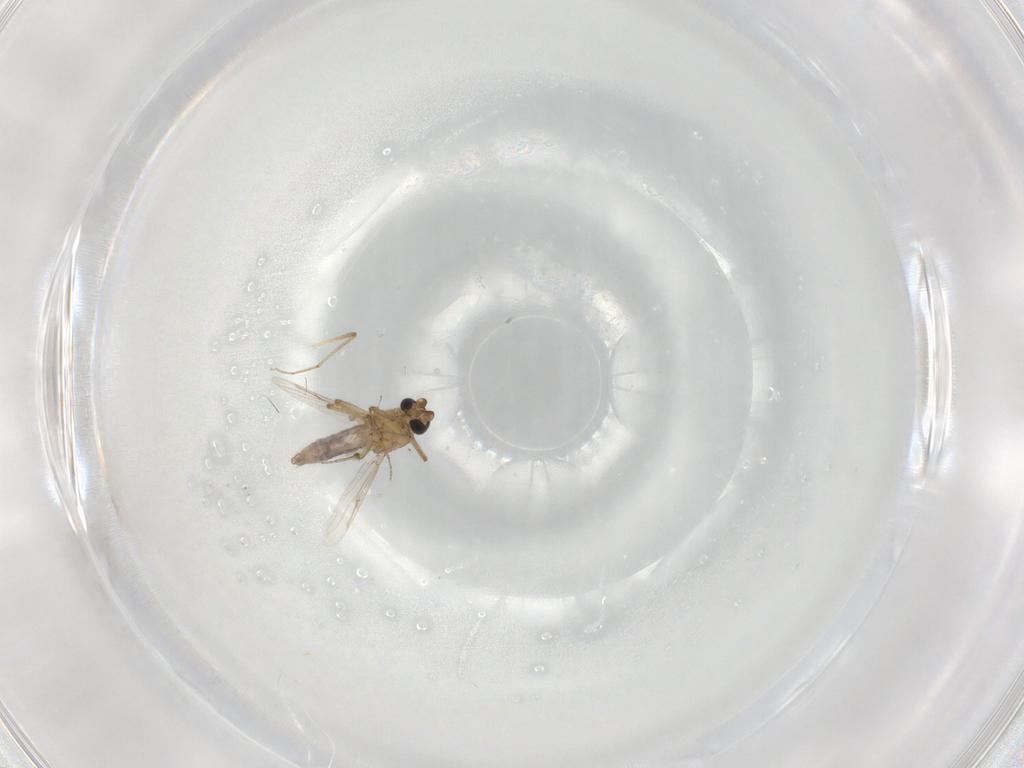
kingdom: Animalia
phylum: Arthropoda
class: Insecta
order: Diptera
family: Ceratopogonidae
